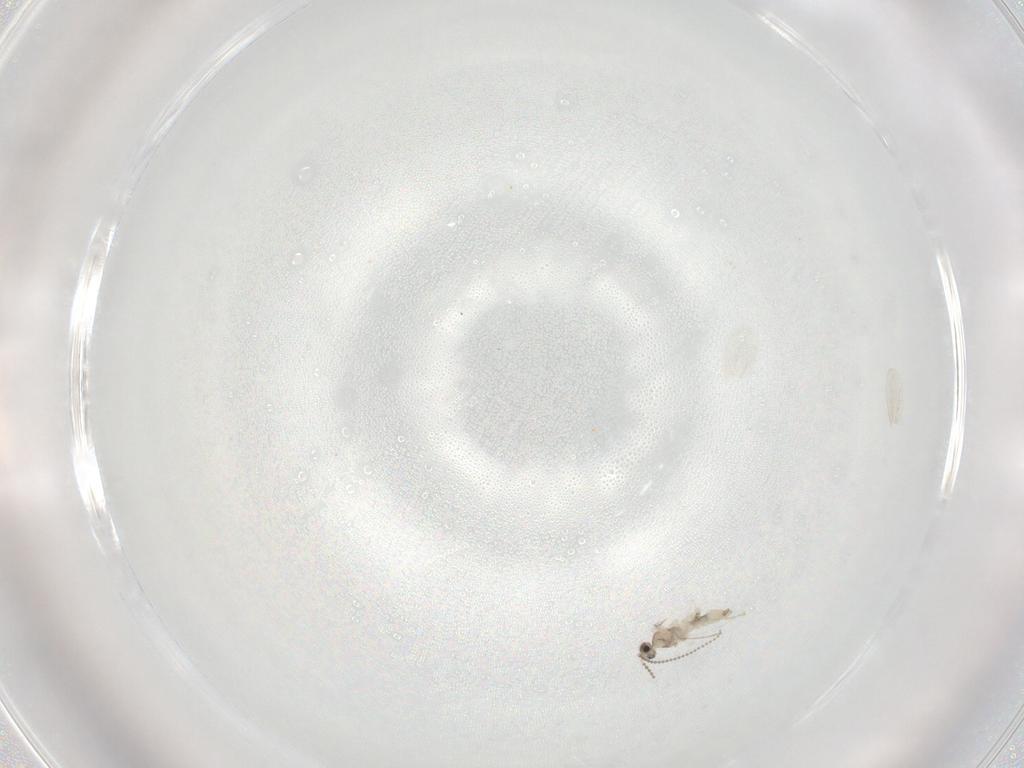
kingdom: Animalia
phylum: Arthropoda
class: Insecta
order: Diptera
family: Cecidomyiidae
